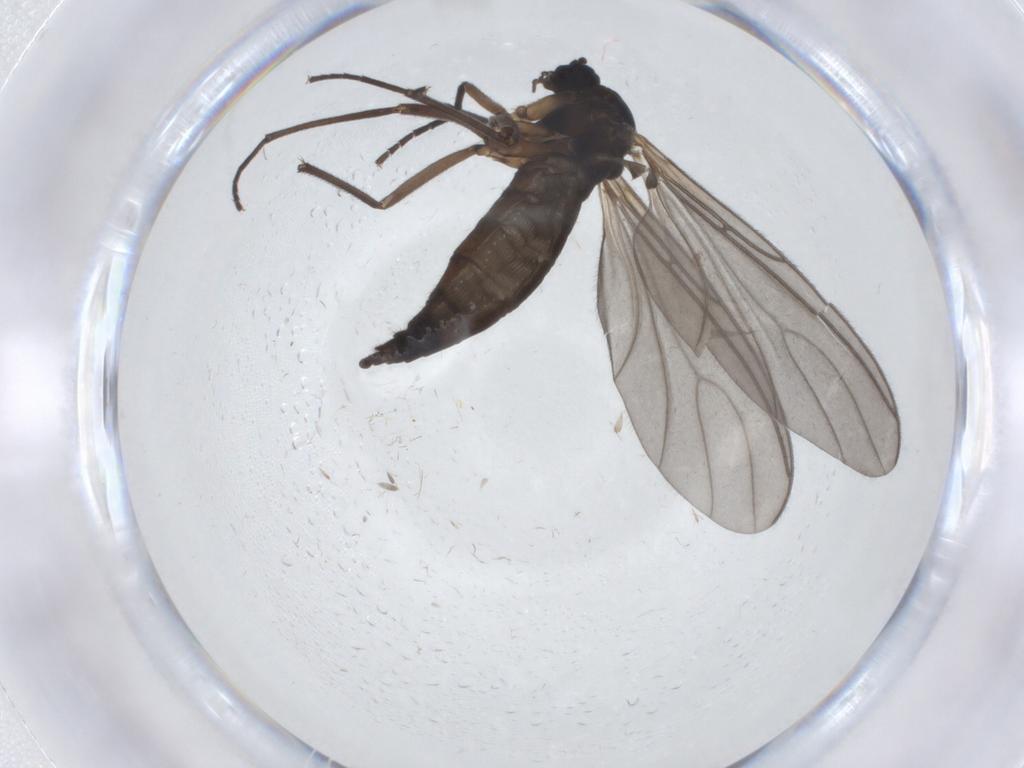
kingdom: Animalia
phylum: Arthropoda
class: Insecta
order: Diptera
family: Sciaridae
